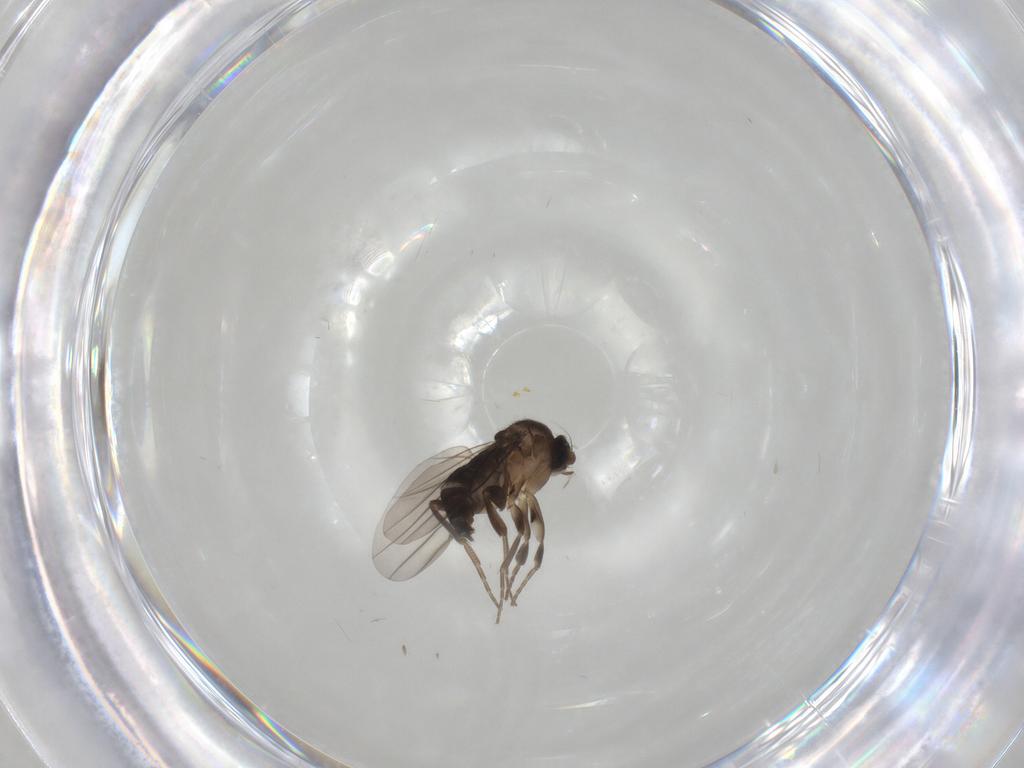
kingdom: Animalia
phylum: Arthropoda
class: Insecta
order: Diptera
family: Phoridae
